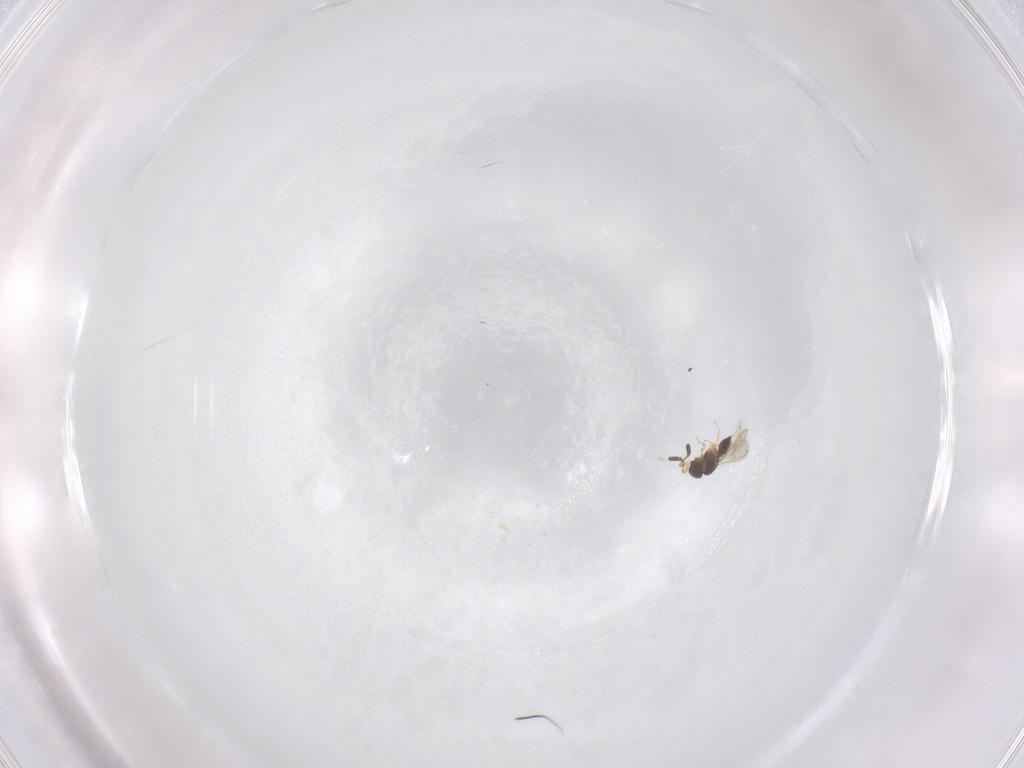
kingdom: Animalia
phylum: Arthropoda
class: Insecta
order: Hymenoptera
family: Scelionidae
